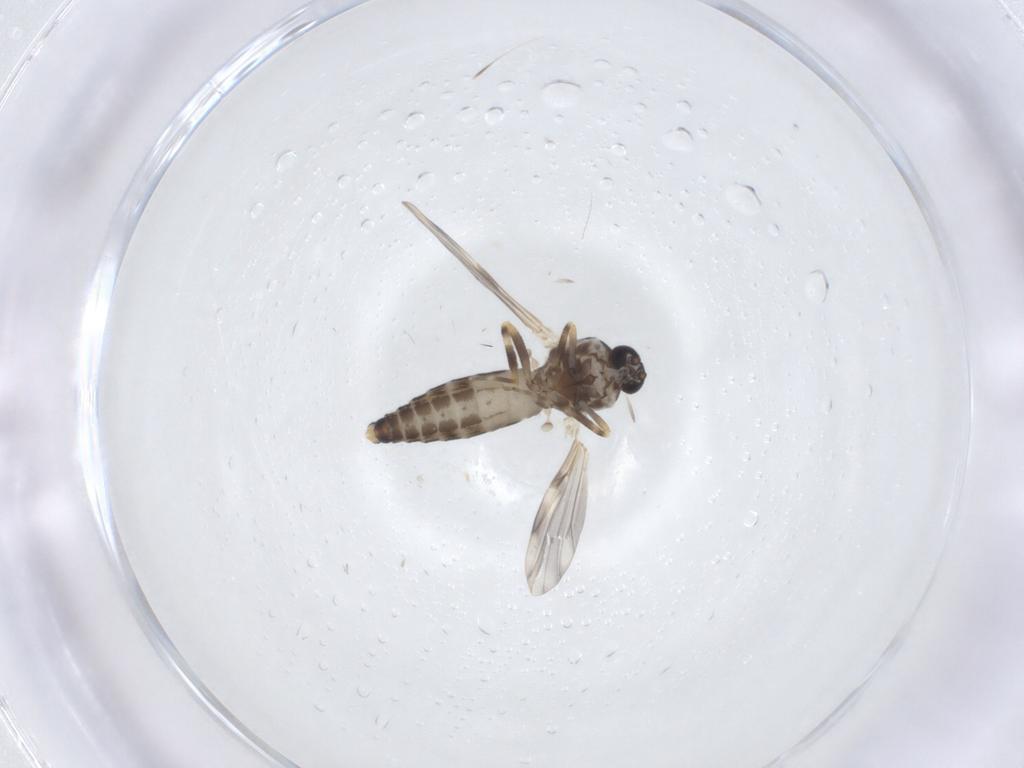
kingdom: Animalia
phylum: Arthropoda
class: Insecta
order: Diptera
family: Ceratopogonidae
